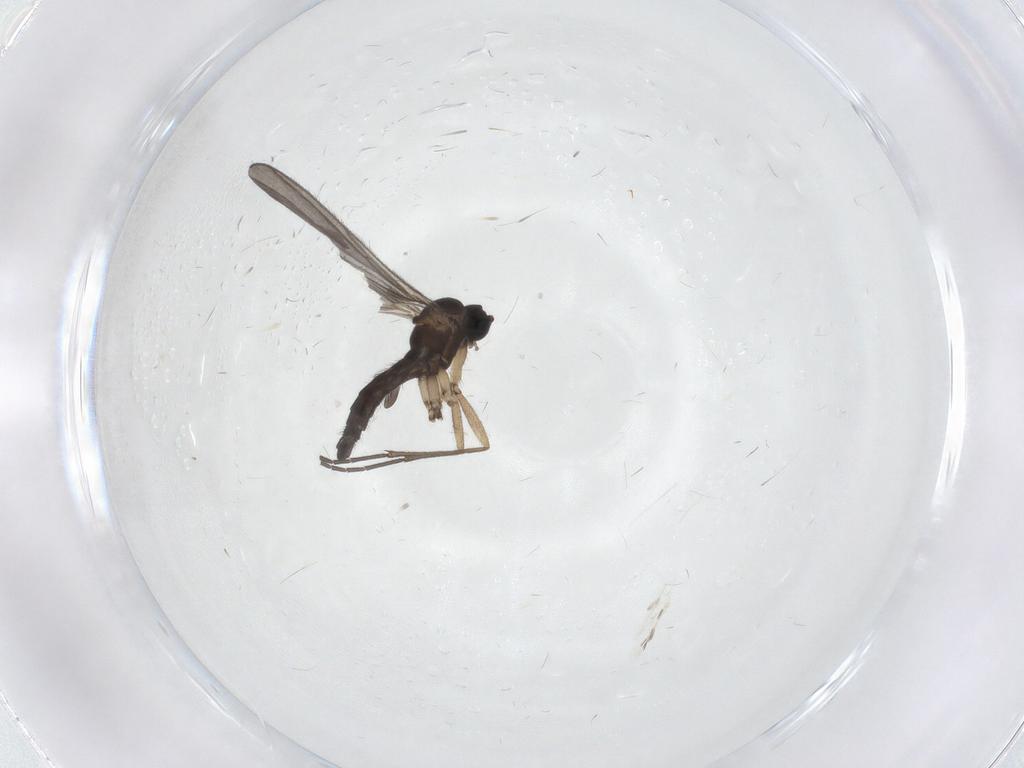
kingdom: Animalia
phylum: Arthropoda
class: Insecta
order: Diptera
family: Sciaridae
